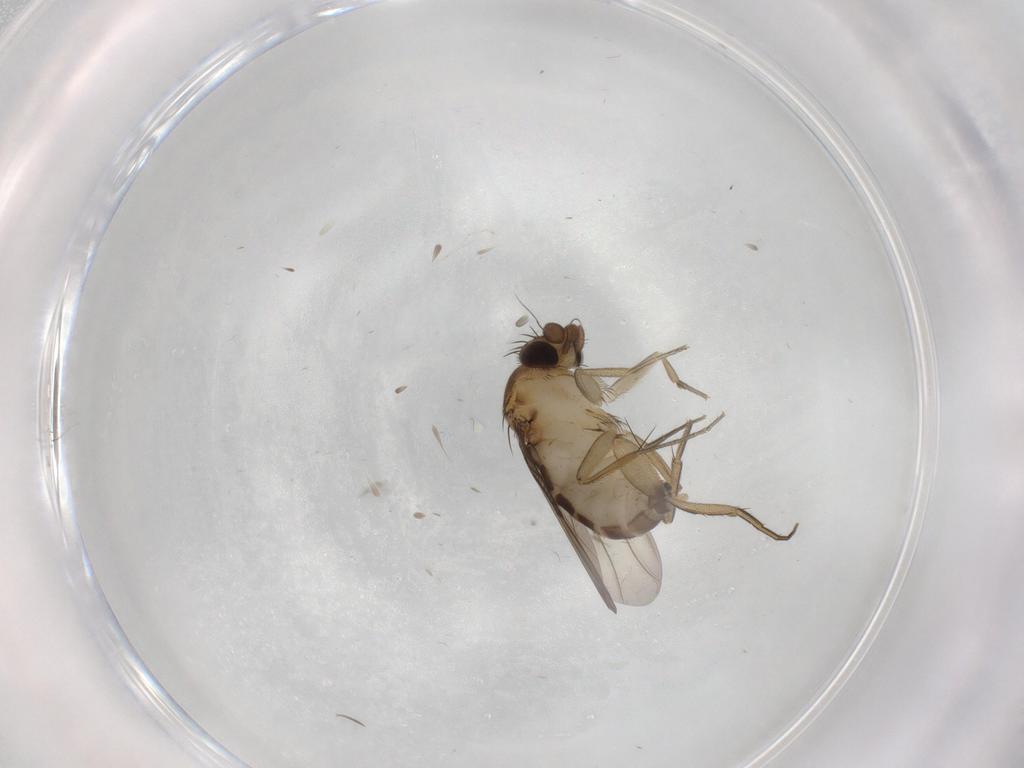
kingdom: Animalia
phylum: Arthropoda
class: Insecta
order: Diptera
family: Phoridae
